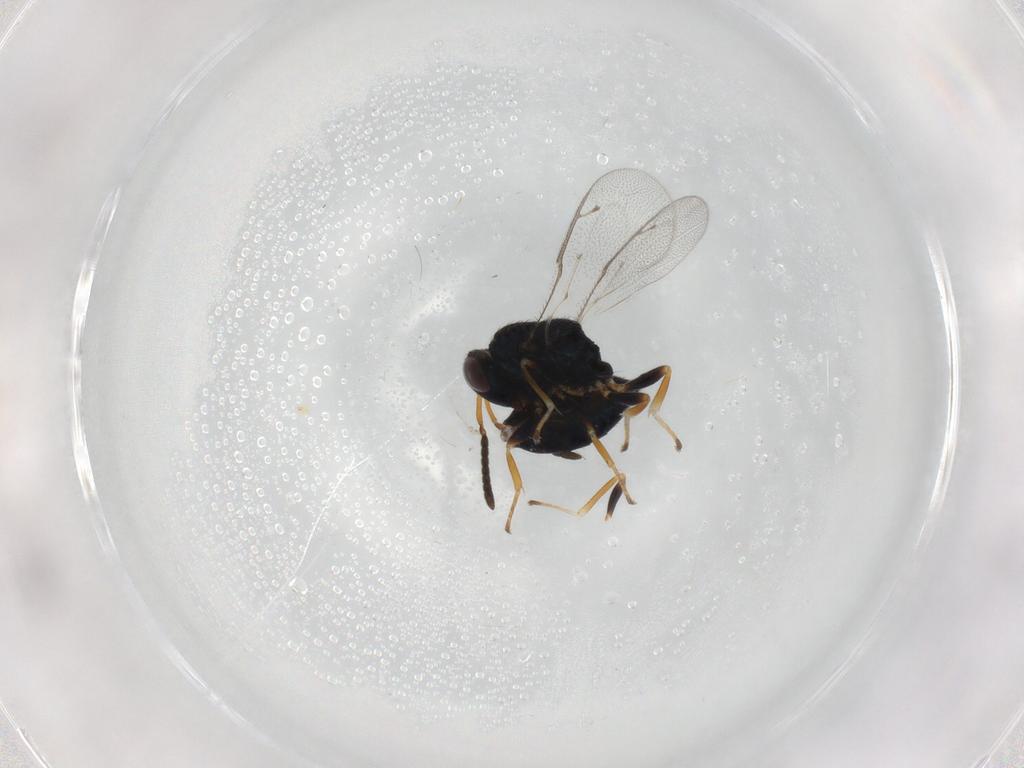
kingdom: Animalia
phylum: Arthropoda
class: Insecta
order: Hymenoptera
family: Pteromalidae
